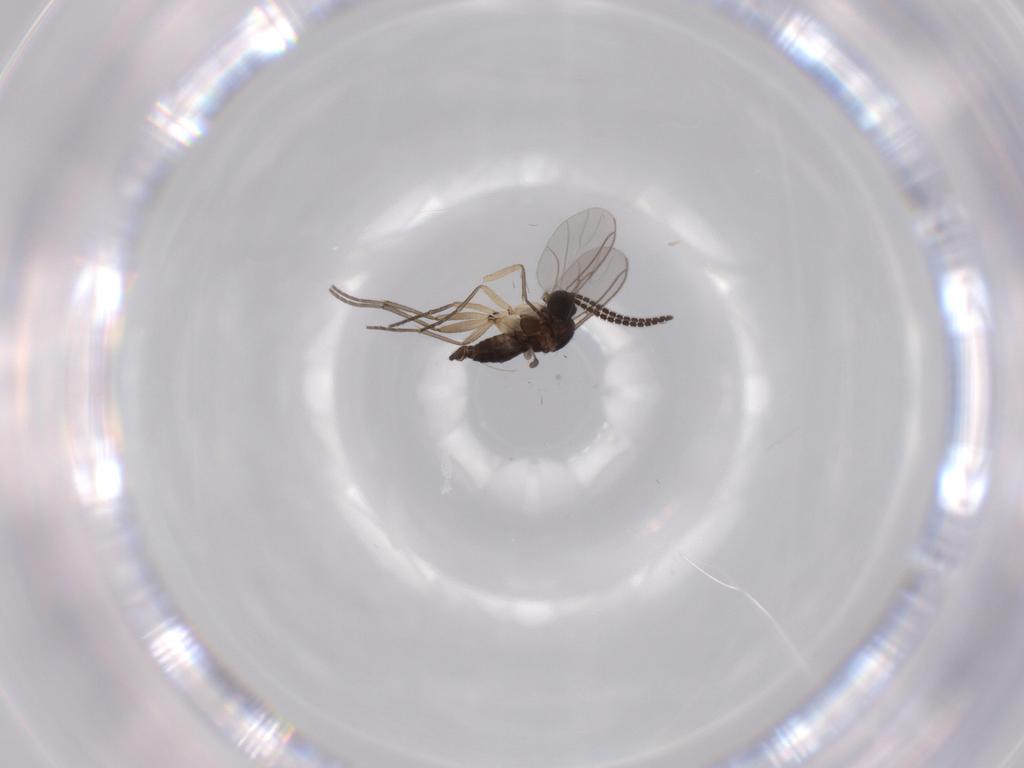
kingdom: Animalia
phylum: Arthropoda
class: Insecta
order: Diptera
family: Sciaridae
